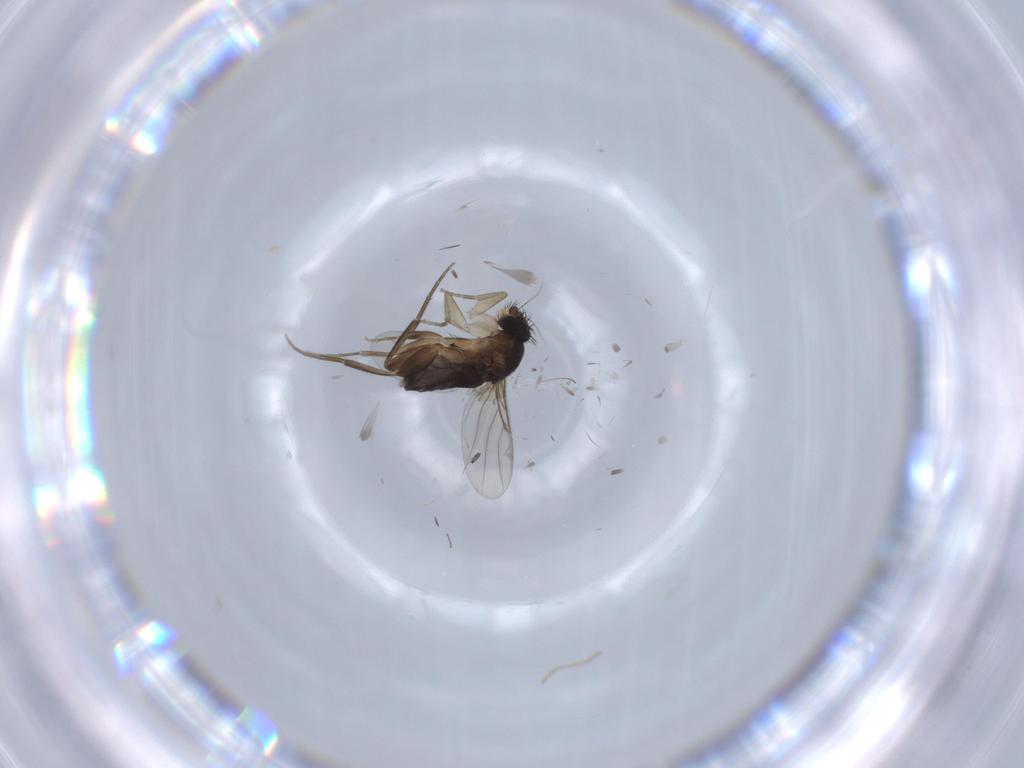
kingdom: Animalia
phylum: Arthropoda
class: Insecta
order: Diptera
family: Phoridae
